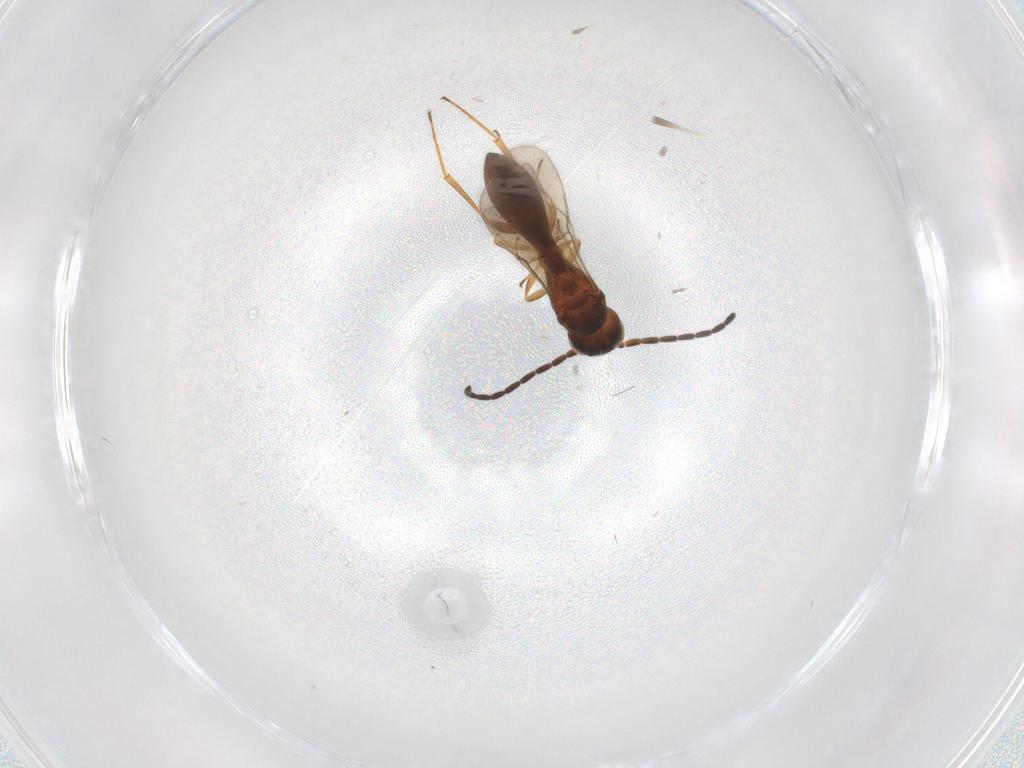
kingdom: Animalia
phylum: Arthropoda
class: Insecta
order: Hymenoptera
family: Scelionidae
